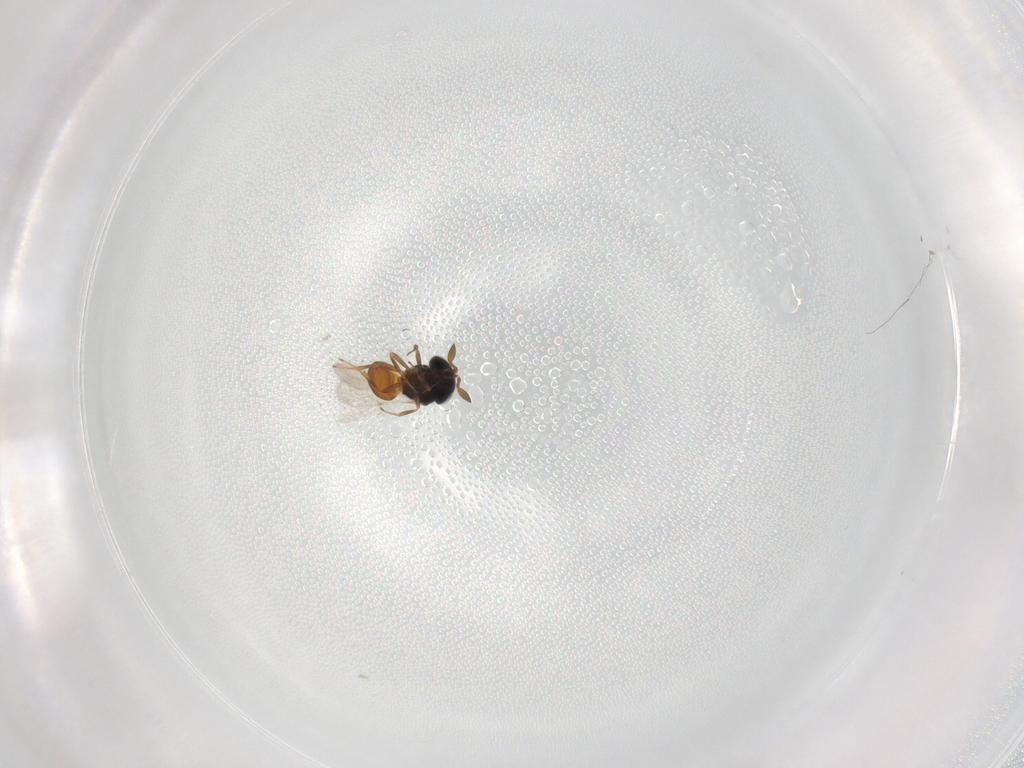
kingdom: Animalia
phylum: Arthropoda
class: Insecta
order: Hymenoptera
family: Scelionidae
